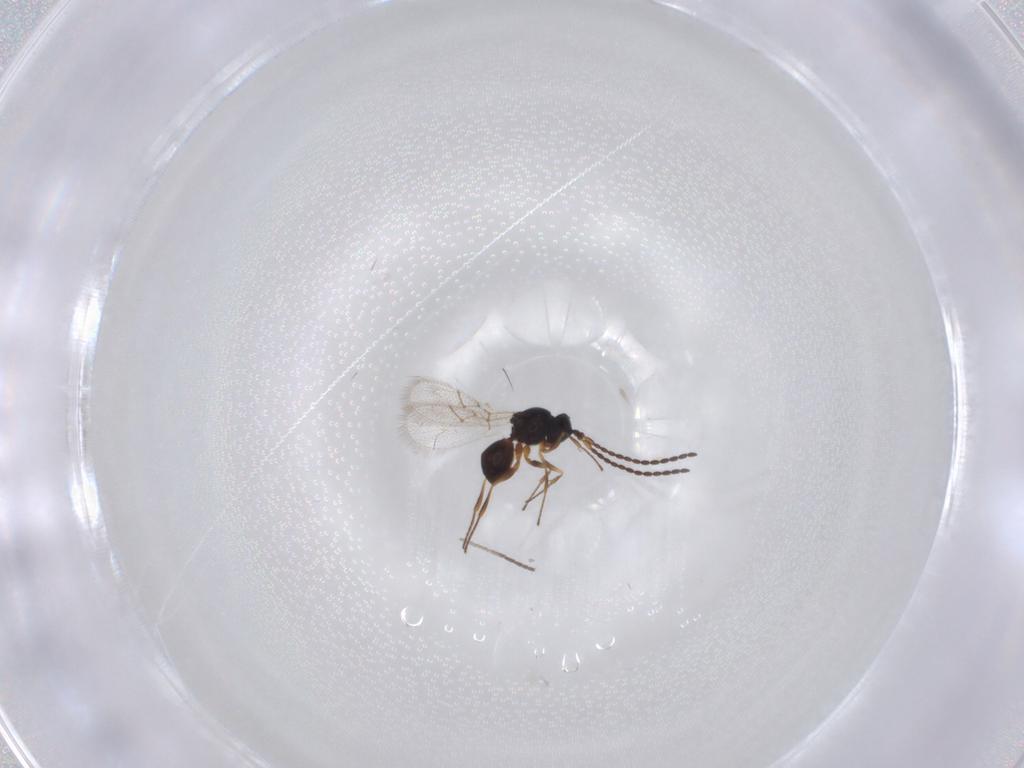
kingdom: Animalia
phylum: Arthropoda
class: Insecta
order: Hymenoptera
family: Figitidae
